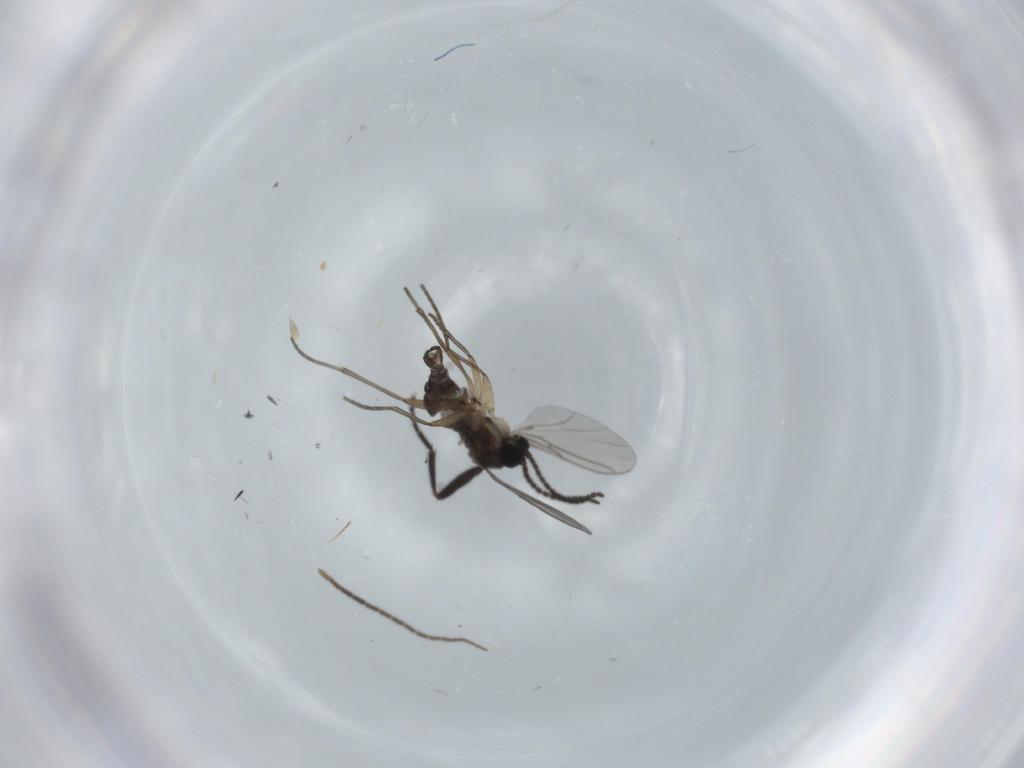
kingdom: Animalia
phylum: Arthropoda
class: Insecta
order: Diptera
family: Sciaridae
